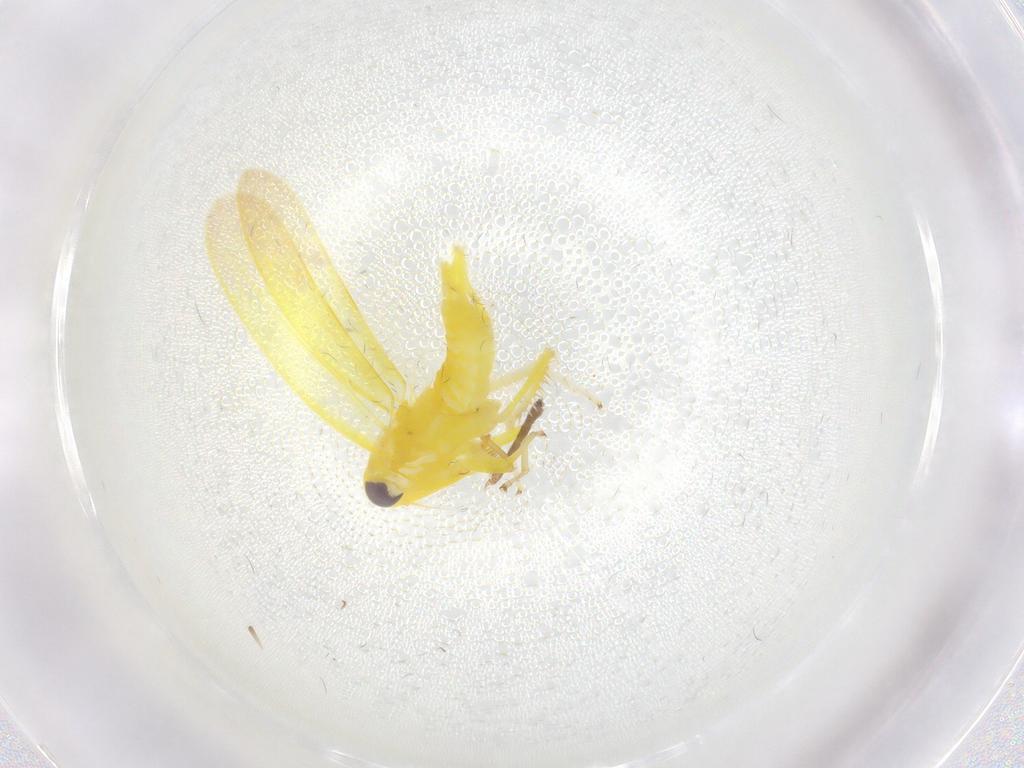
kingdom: Animalia
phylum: Arthropoda
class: Insecta
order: Hemiptera
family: Cicadellidae
